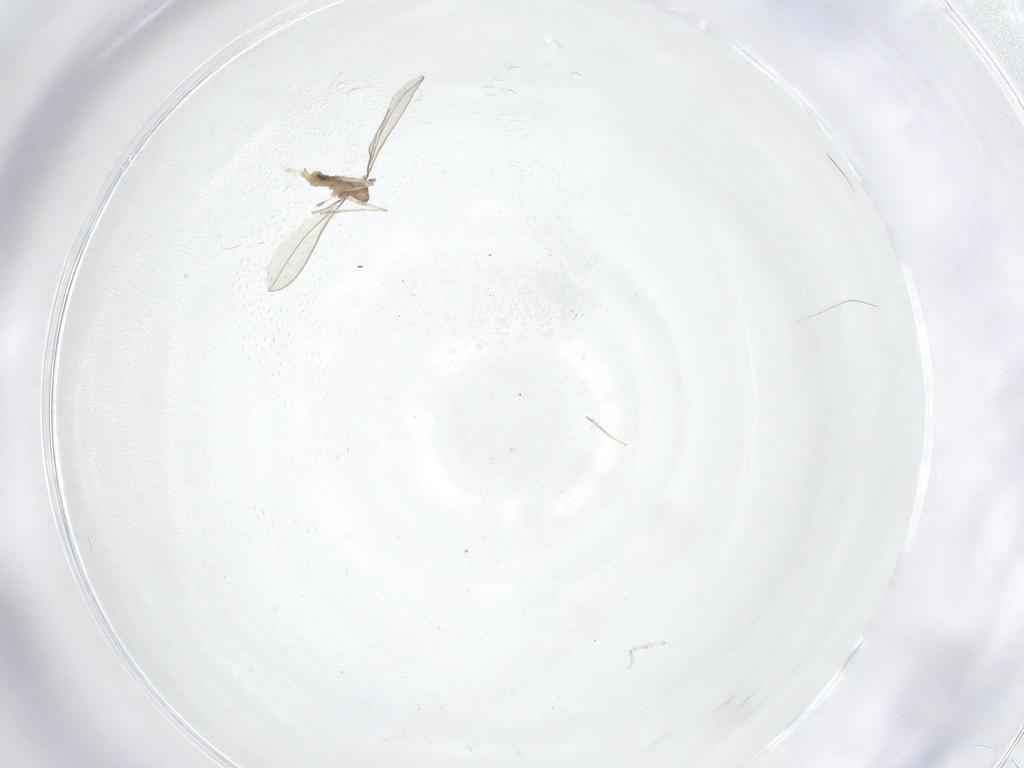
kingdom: Animalia
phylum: Arthropoda
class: Insecta
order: Diptera
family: Cecidomyiidae
